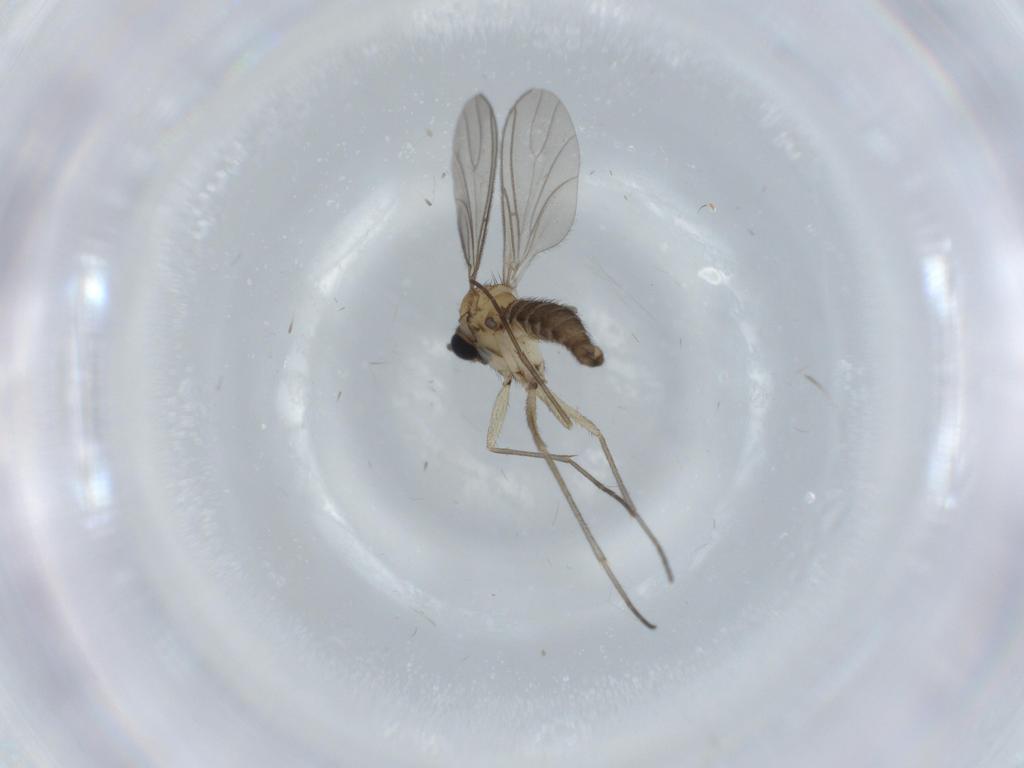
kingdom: Animalia
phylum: Arthropoda
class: Insecta
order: Diptera
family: Sciaridae
